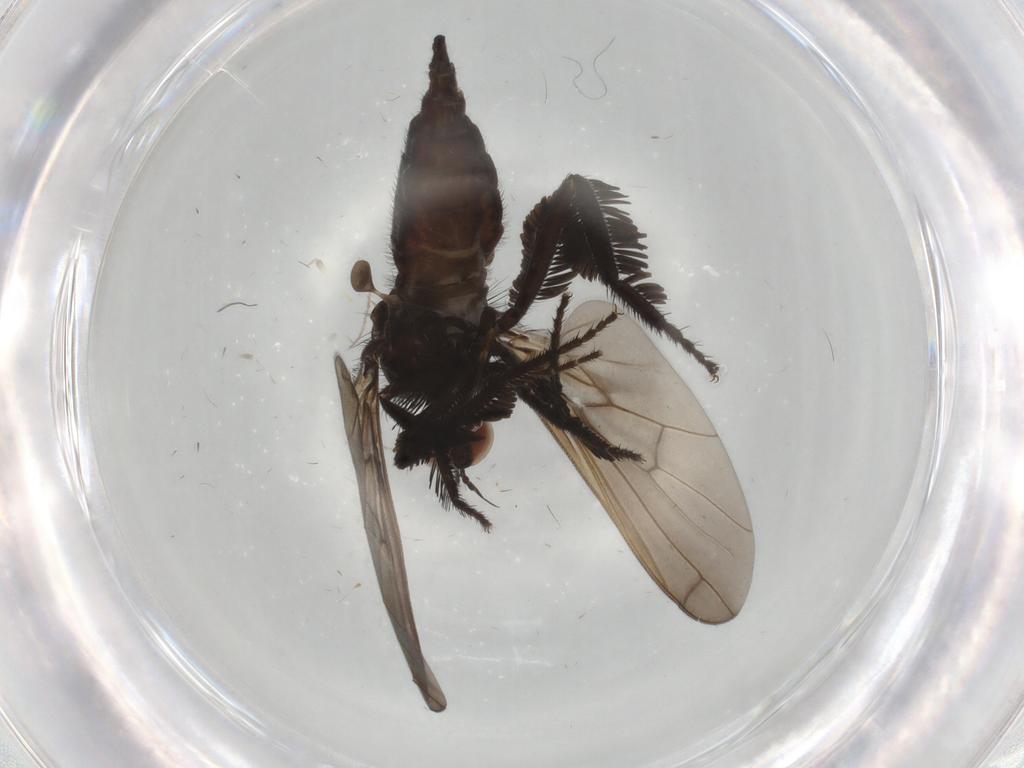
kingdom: Animalia
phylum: Arthropoda
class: Insecta
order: Diptera
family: Empididae
